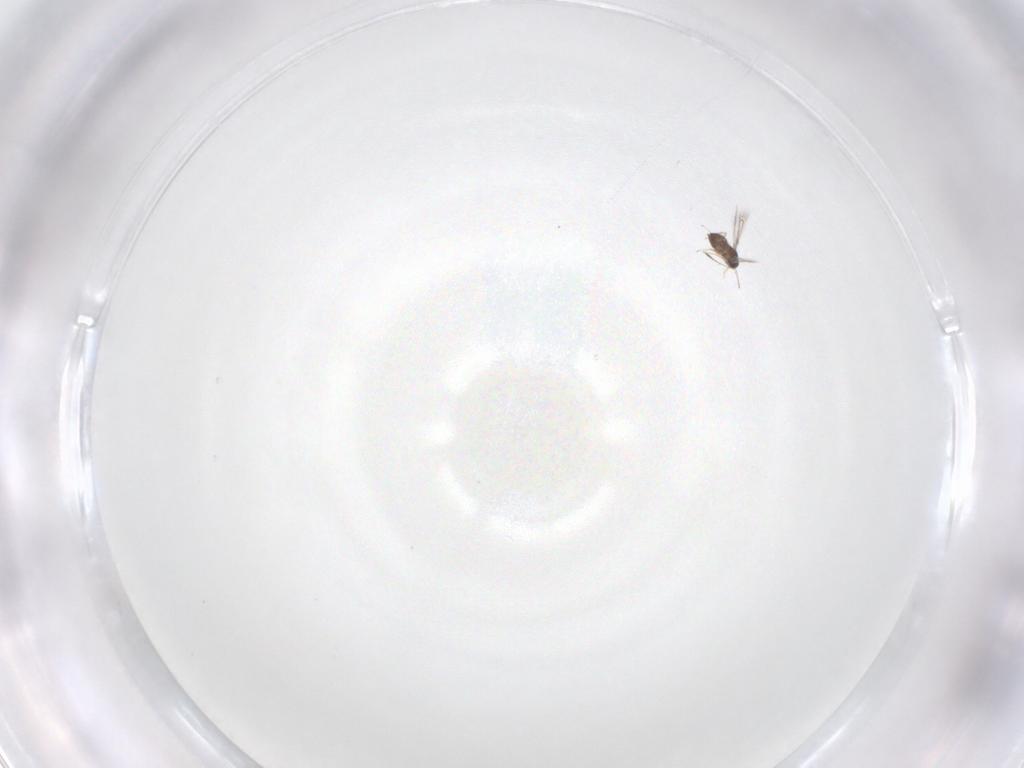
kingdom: Animalia
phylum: Arthropoda
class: Insecta
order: Hymenoptera
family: Mymaridae
